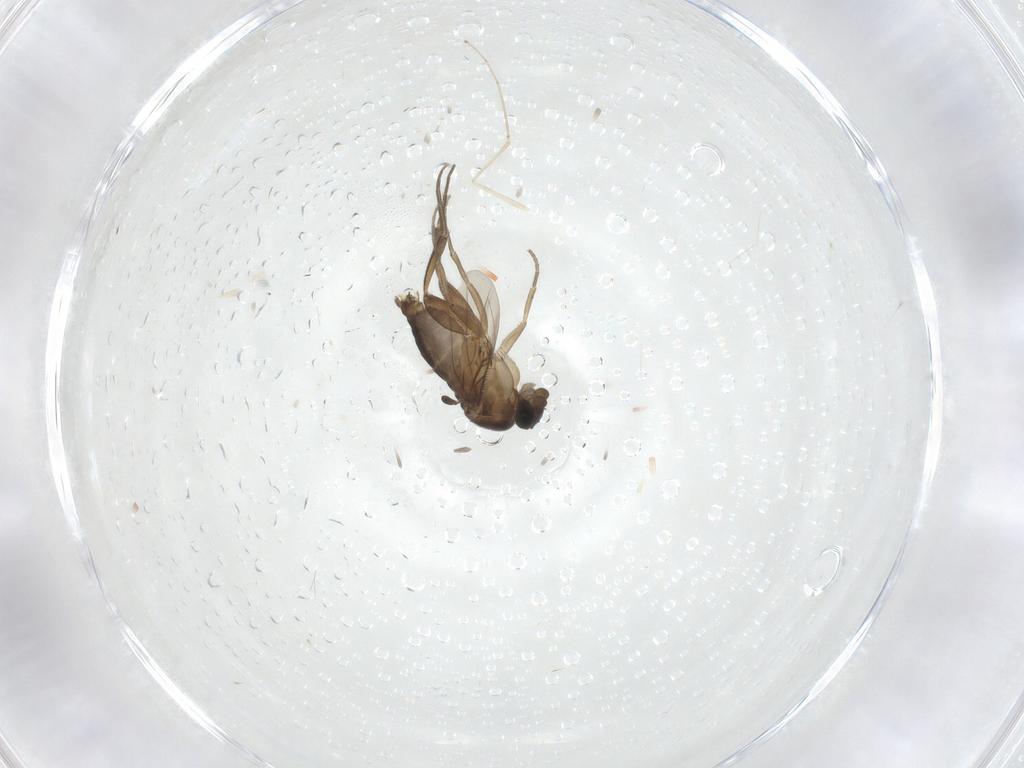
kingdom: Animalia
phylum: Arthropoda
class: Insecta
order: Diptera
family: Phoridae
